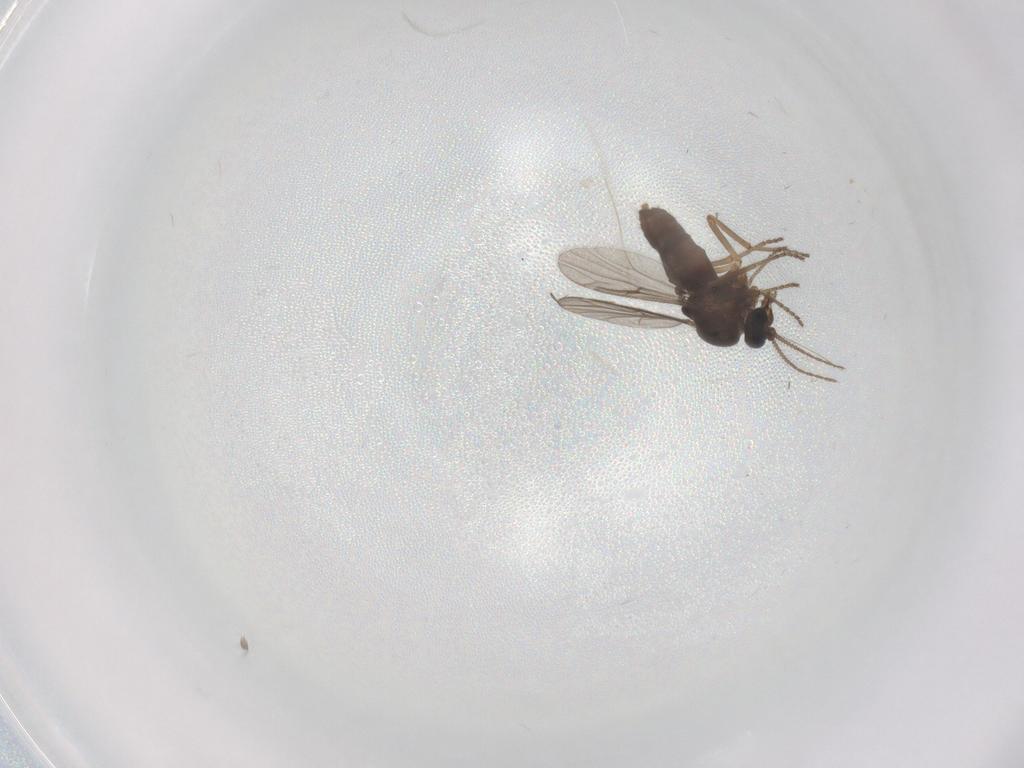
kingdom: Animalia
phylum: Arthropoda
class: Insecta
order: Diptera
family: Ceratopogonidae
